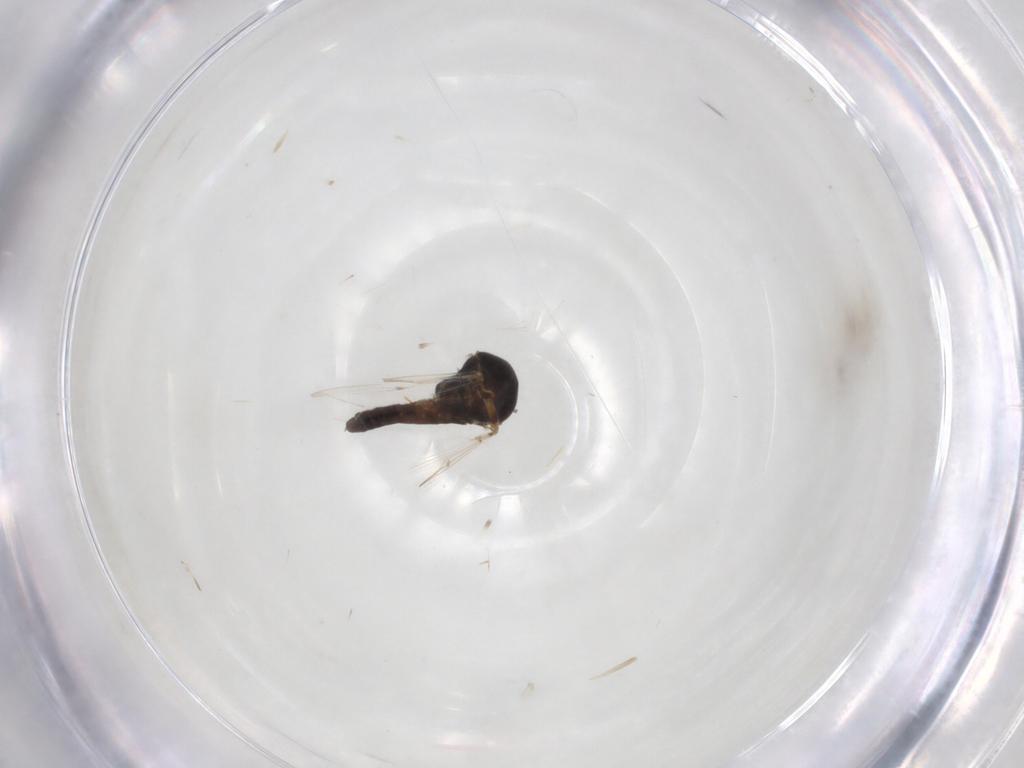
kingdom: Animalia
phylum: Arthropoda
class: Insecta
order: Diptera
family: Ceratopogonidae
